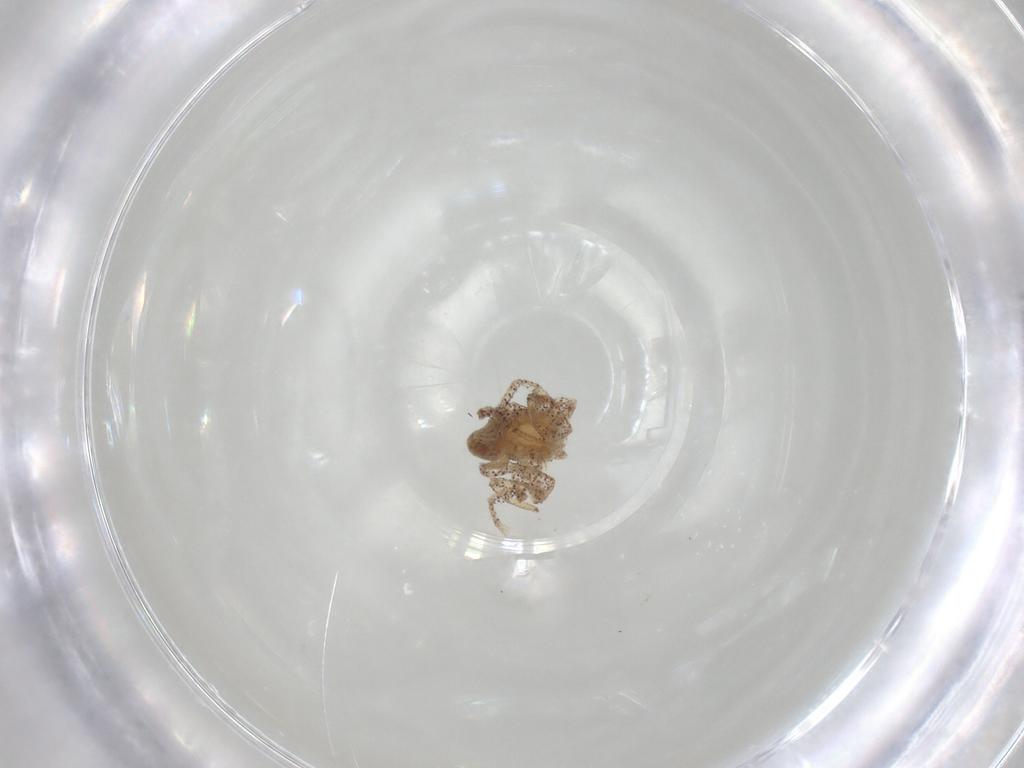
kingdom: Animalia
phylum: Arthropoda
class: Insecta
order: Hemiptera
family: Tingidae
